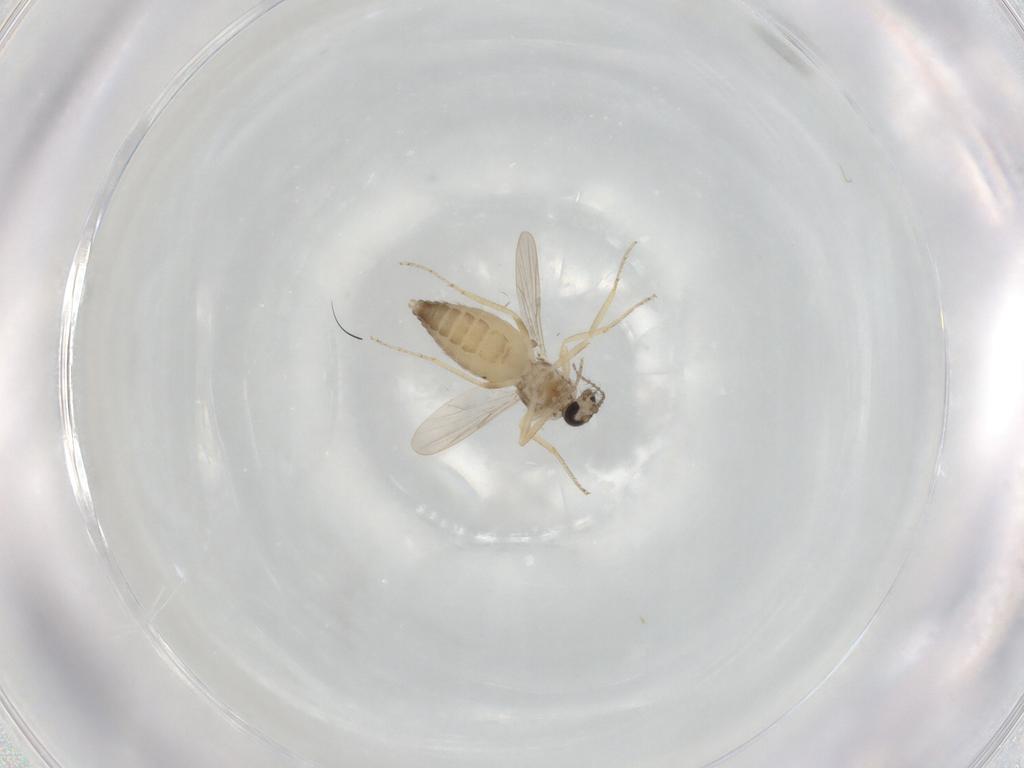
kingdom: Animalia
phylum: Arthropoda
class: Insecta
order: Diptera
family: Ceratopogonidae
